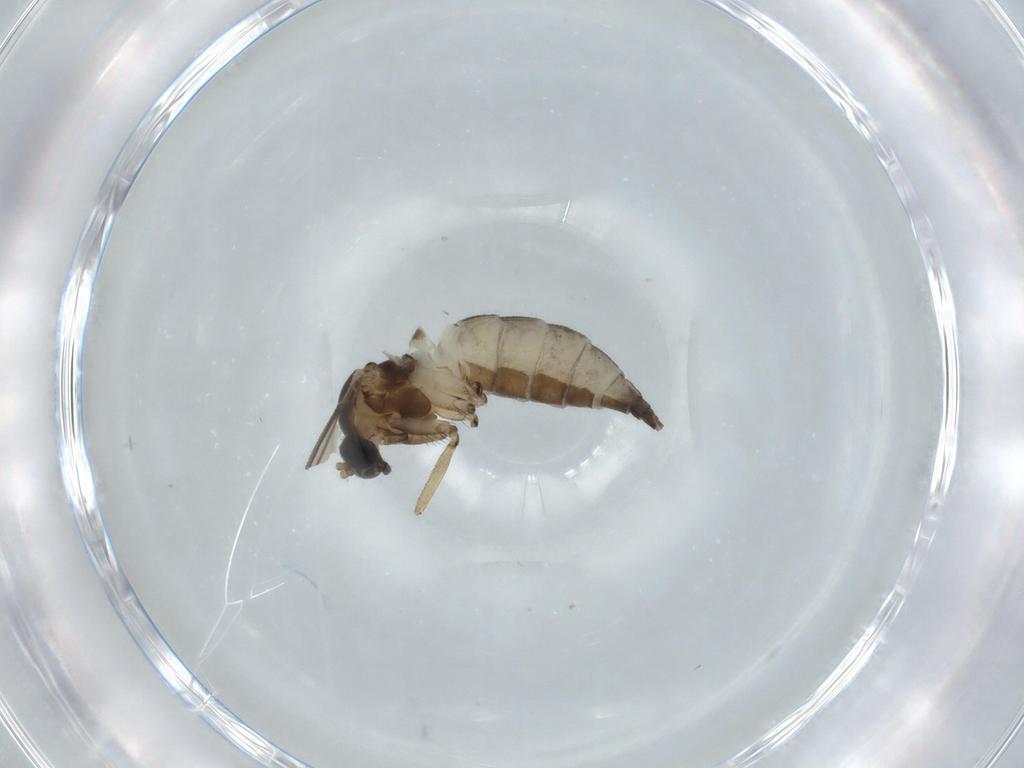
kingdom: Animalia
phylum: Arthropoda
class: Insecta
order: Diptera
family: Sciaridae
